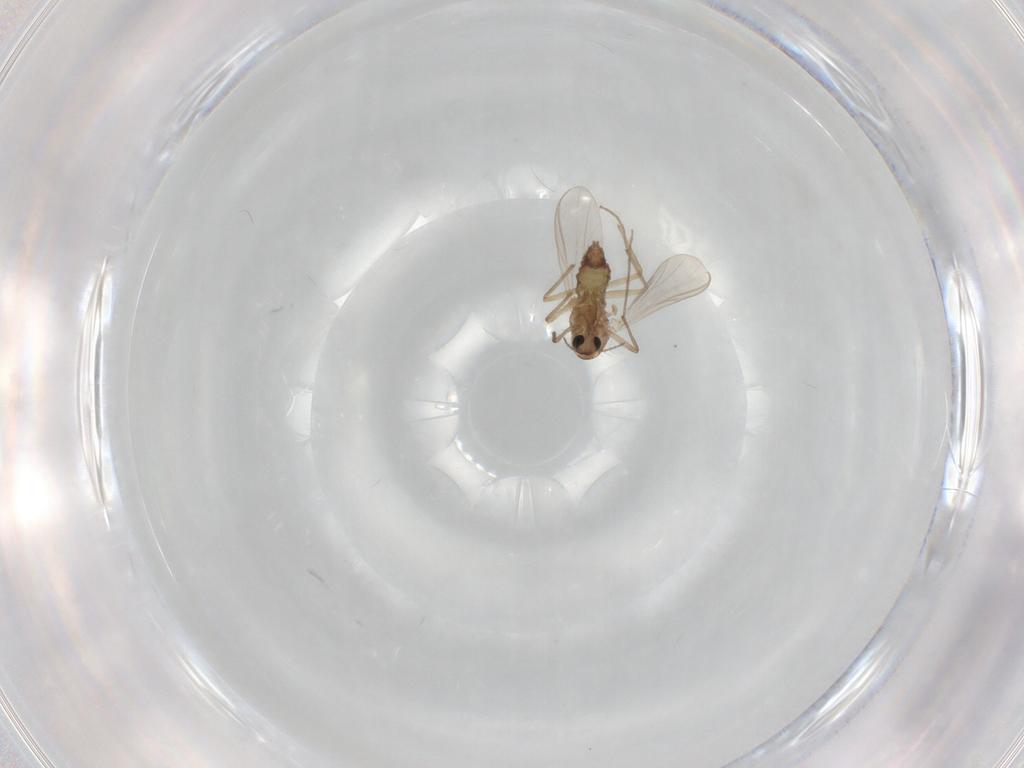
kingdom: Animalia
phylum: Arthropoda
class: Insecta
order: Diptera
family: Chironomidae
